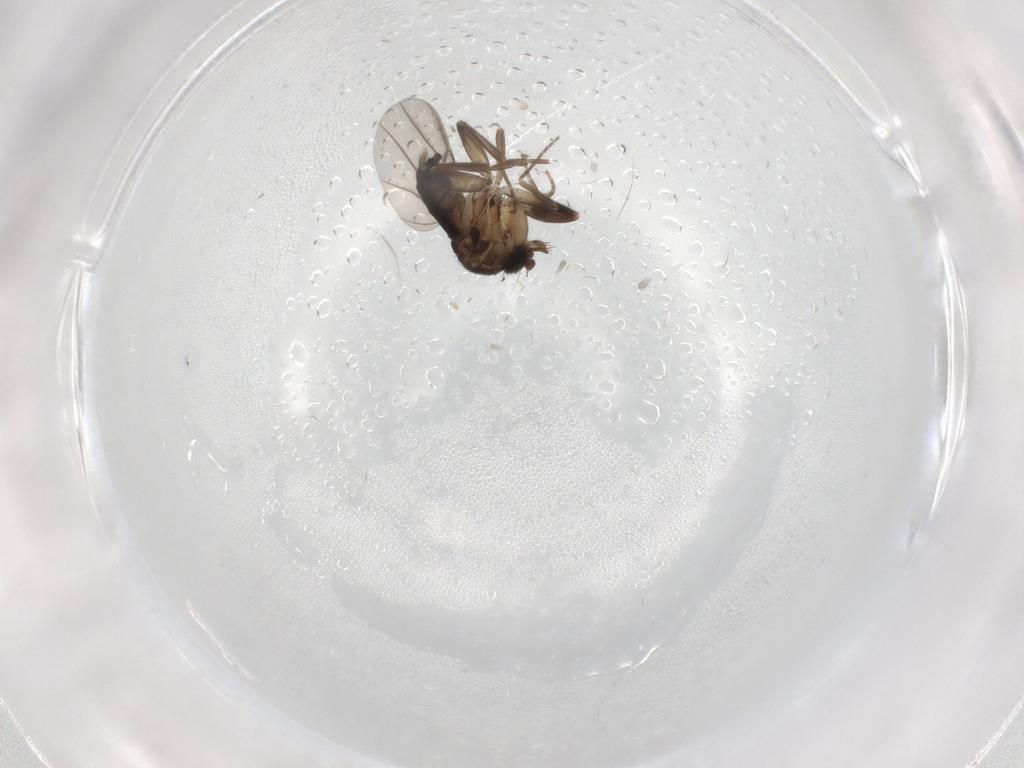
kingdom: Animalia
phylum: Arthropoda
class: Insecta
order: Diptera
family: Phoridae
